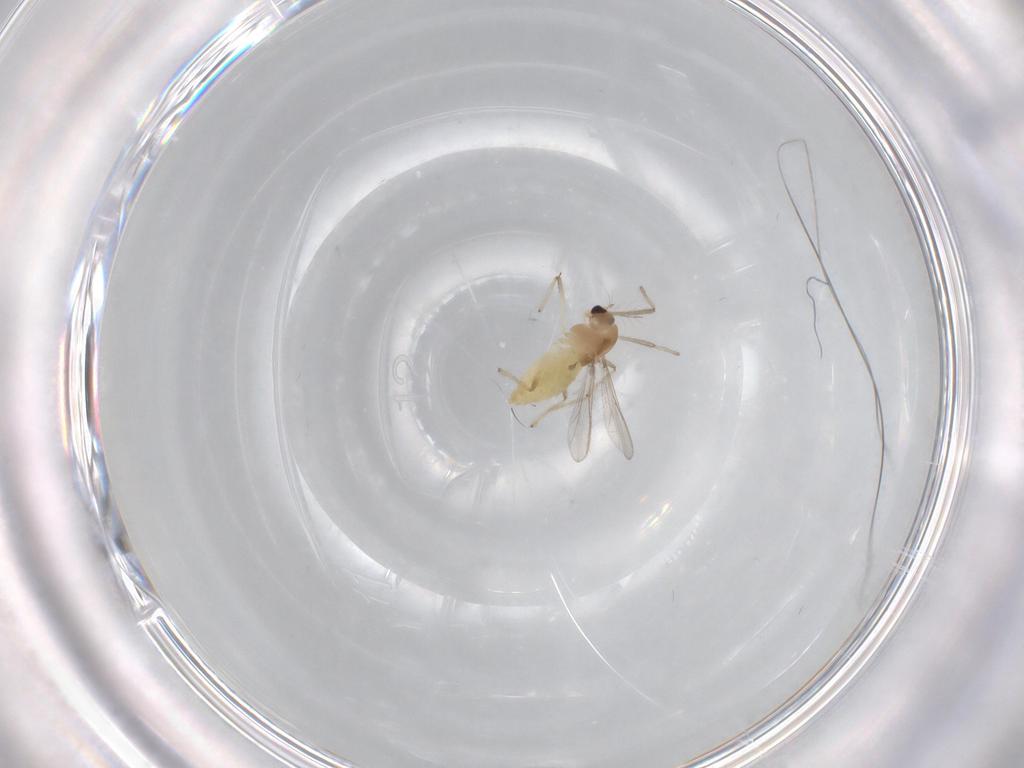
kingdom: Animalia
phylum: Arthropoda
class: Insecta
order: Diptera
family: Chironomidae
